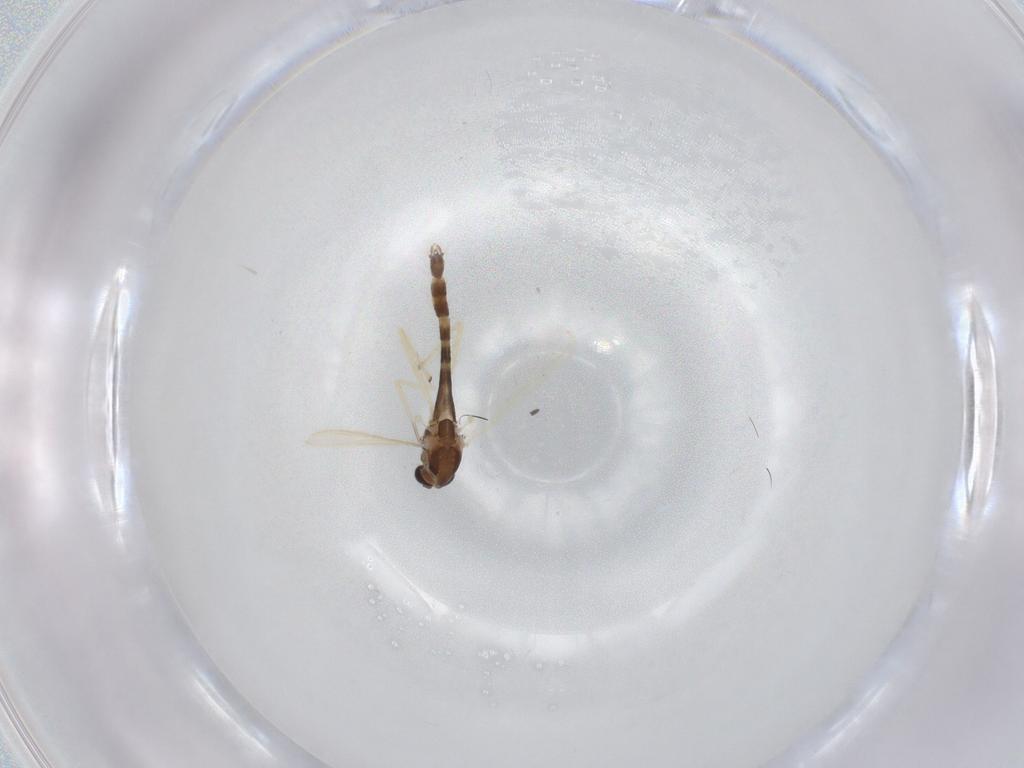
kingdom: Animalia
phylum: Arthropoda
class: Insecta
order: Diptera
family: Chironomidae
